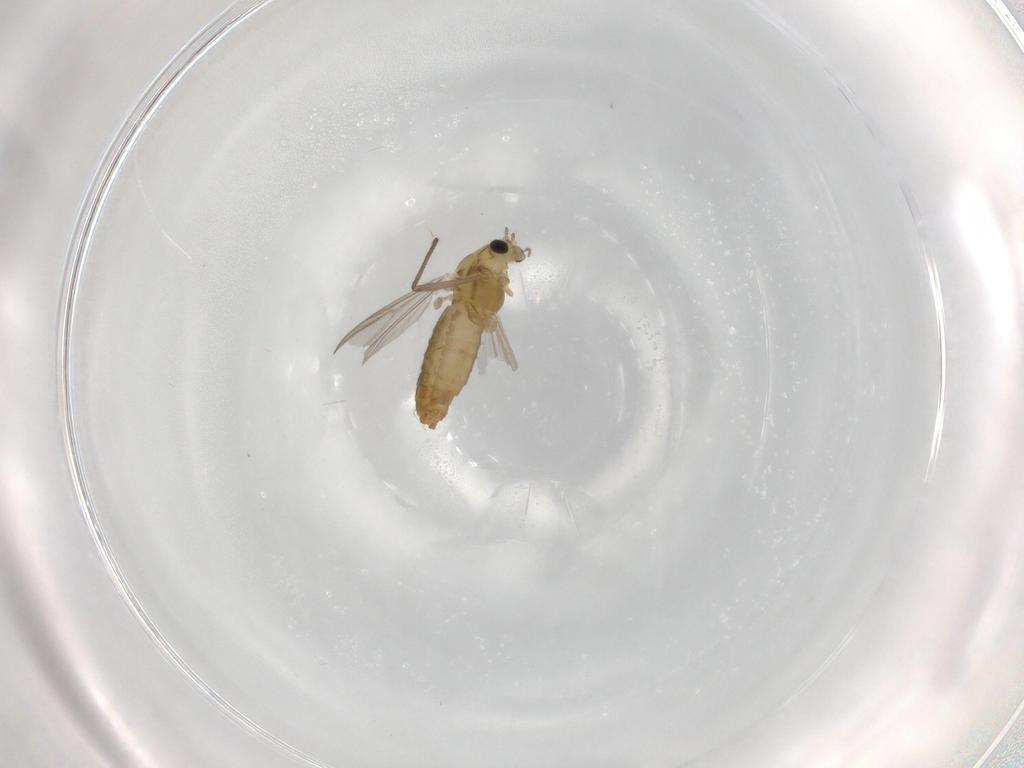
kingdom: Animalia
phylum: Arthropoda
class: Insecta
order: Diptera
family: Chironomidae
